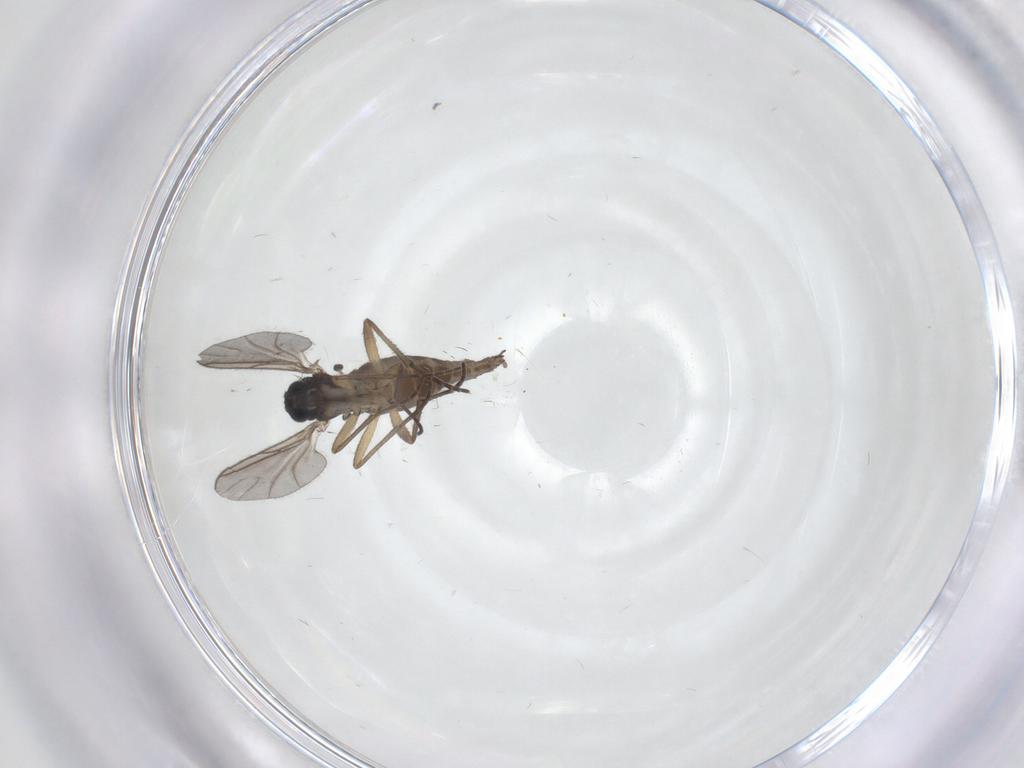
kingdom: Animalia
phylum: Arthropoda
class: Insecta
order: Diptera
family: Sciaridae
